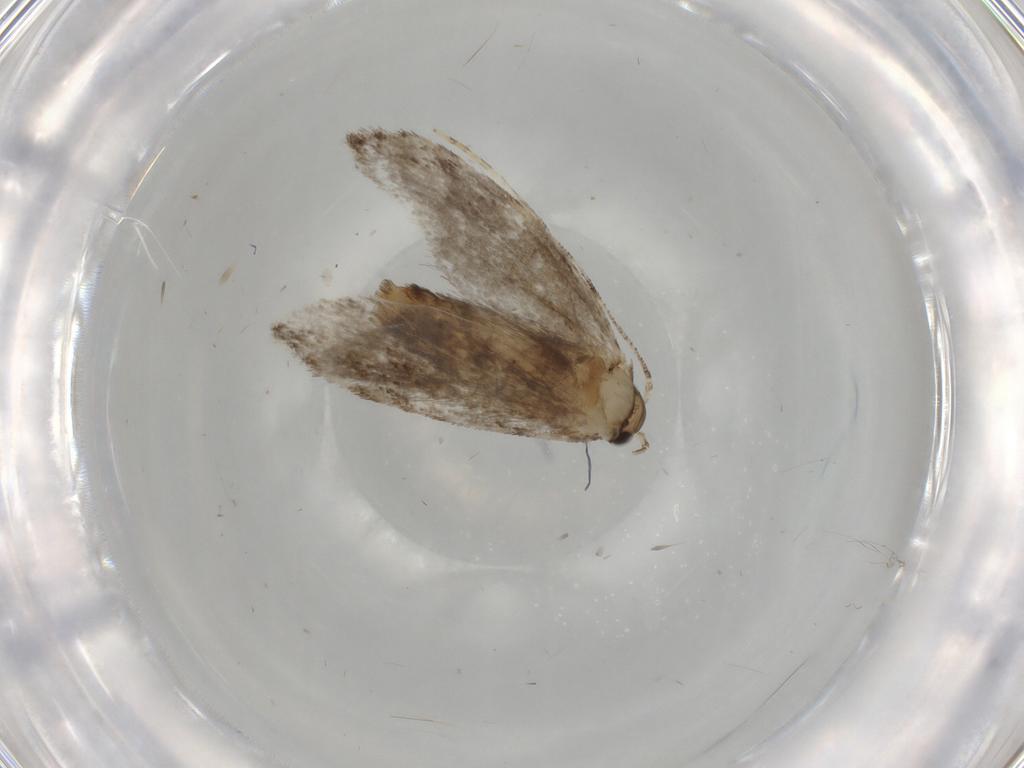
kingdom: Animalia
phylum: Arthropoda
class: Insecta
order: Lepidoptera
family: Tineidae
